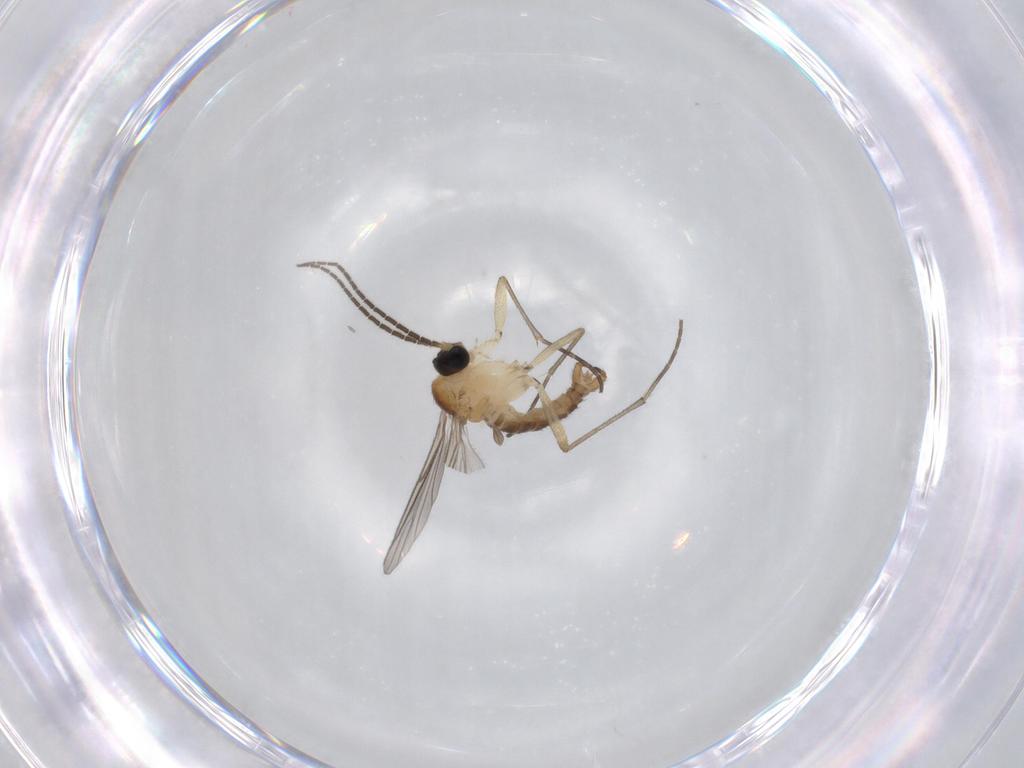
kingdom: Animalia
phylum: Arthropoda
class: Insecta
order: Diptera
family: Sciaridae
